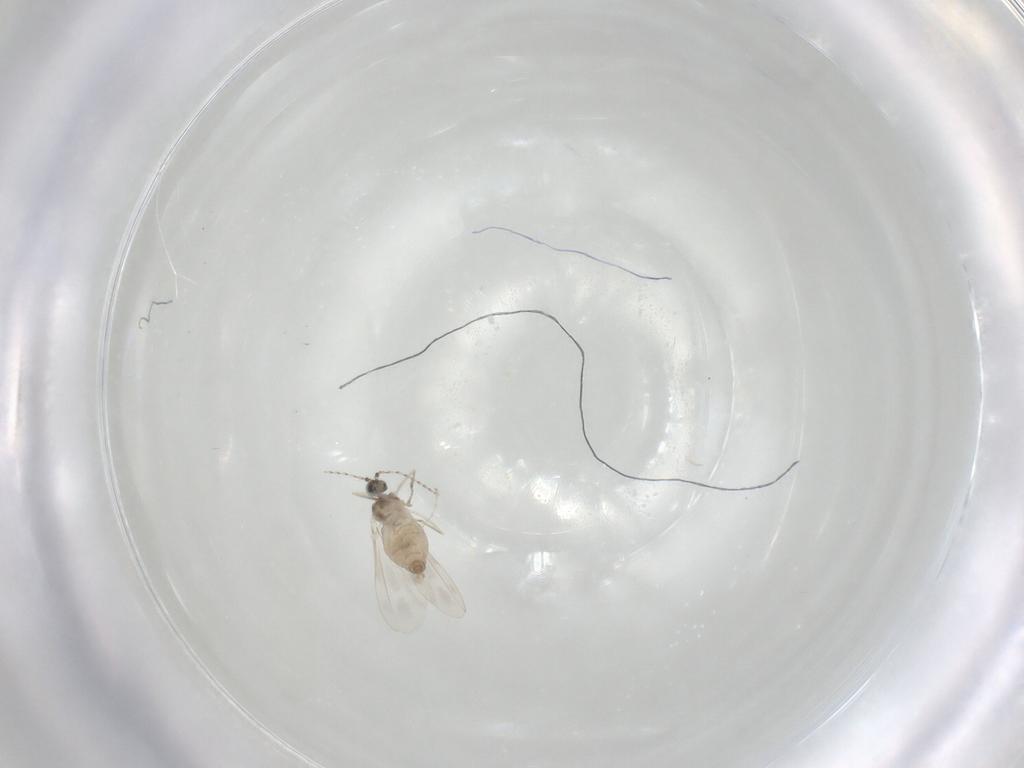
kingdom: Animalia
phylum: Arthropoda
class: Insecta
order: Diptera
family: Cecidomyiidae
